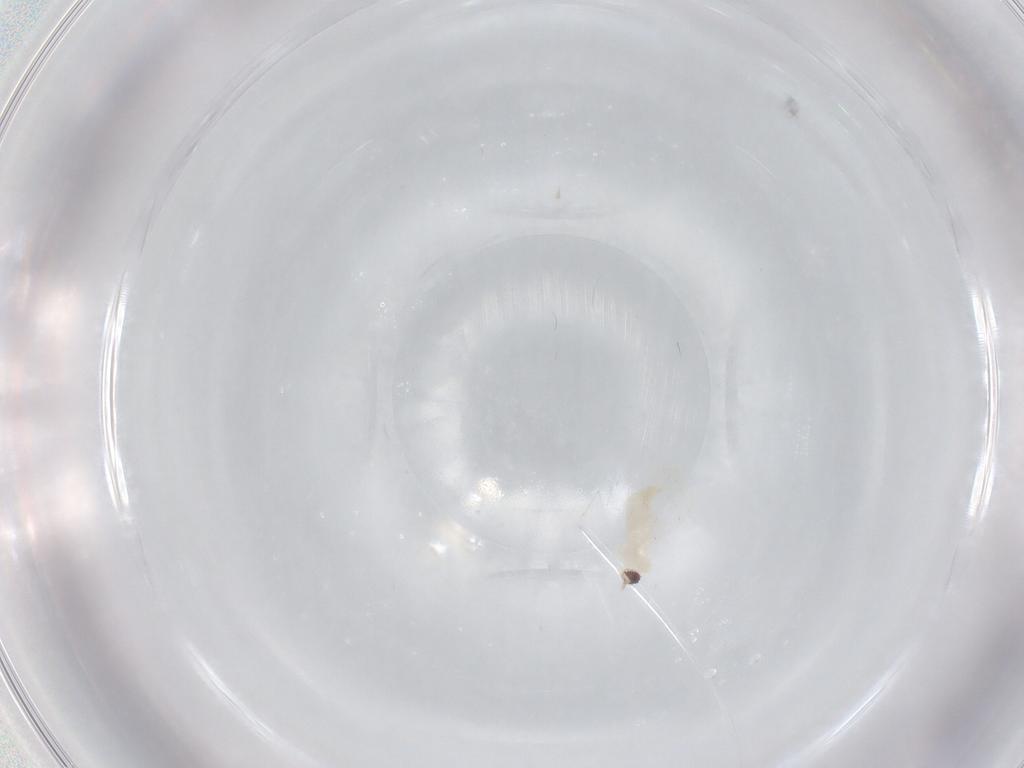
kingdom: Animalia
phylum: Arthropoda
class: Insecta
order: Diptera
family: Cecidomyiidae
